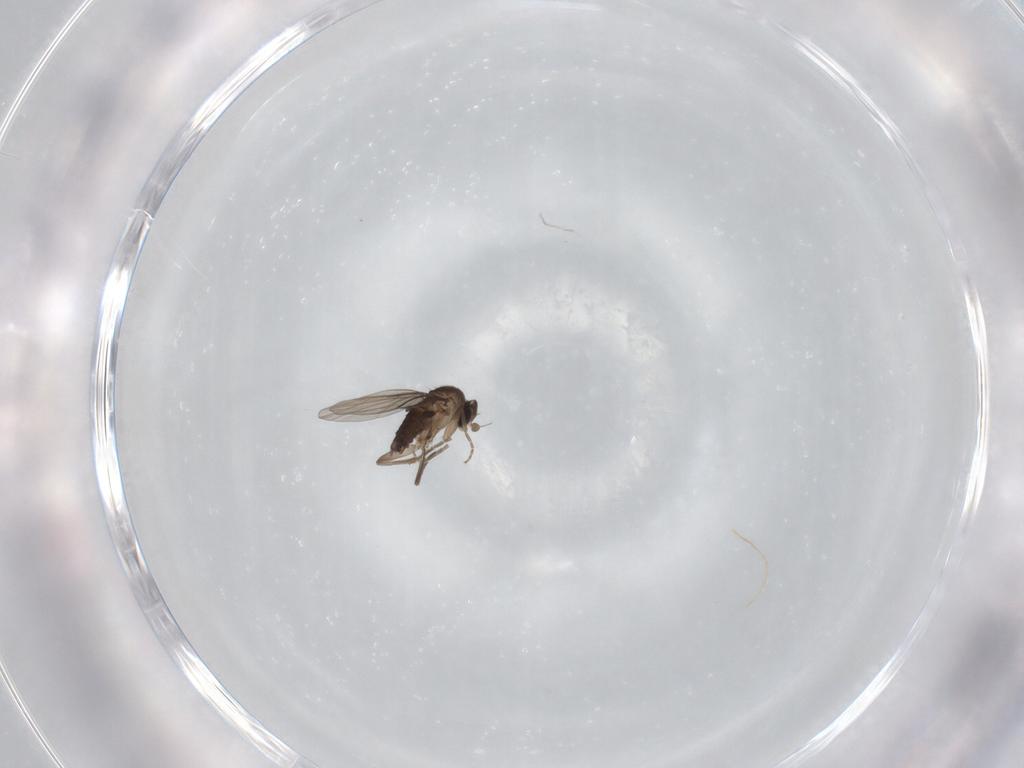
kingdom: Animalia
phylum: Arthropoda
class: Insecta
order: Diptera
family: Phoridae
